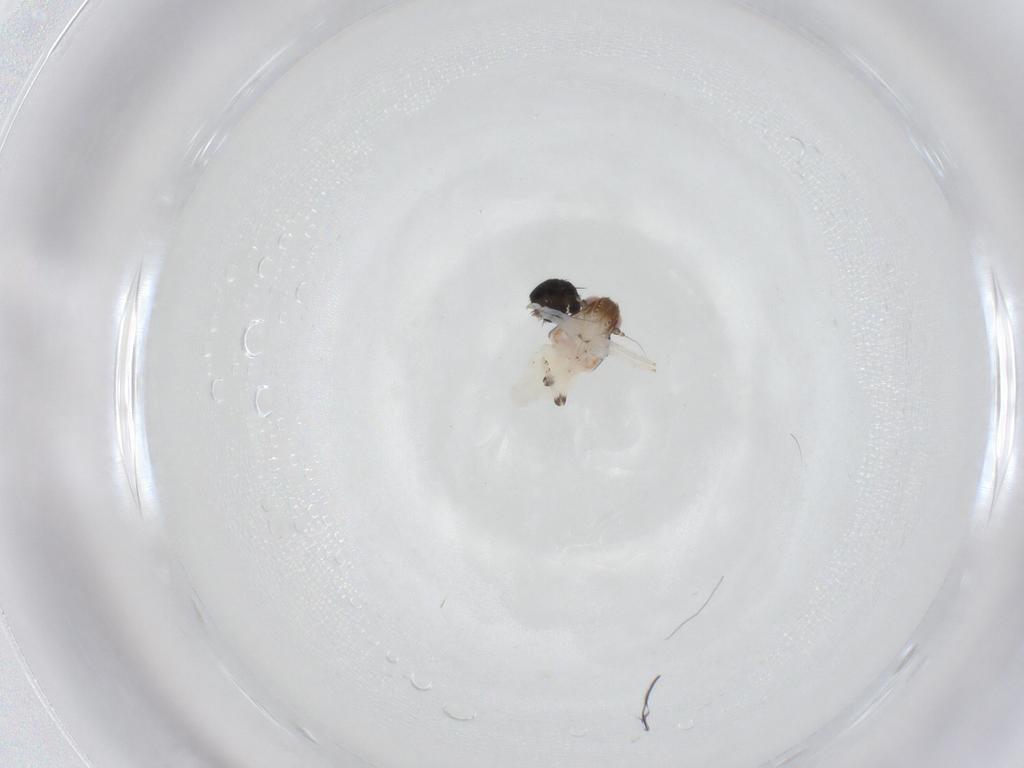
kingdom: Animalia
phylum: Arthropoda
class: Insecta
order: Hemiptera
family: Nogodinidae
